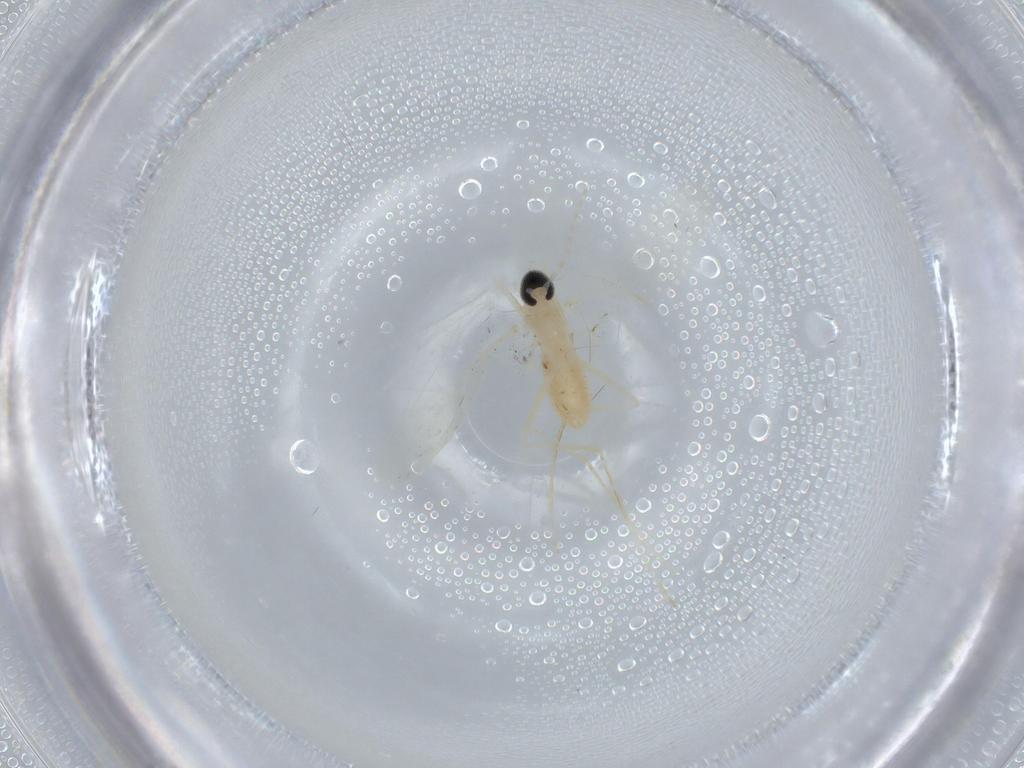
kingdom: Animalia
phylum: Arthropoda
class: Insecta
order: Diptera
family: Cecidomyiidae
